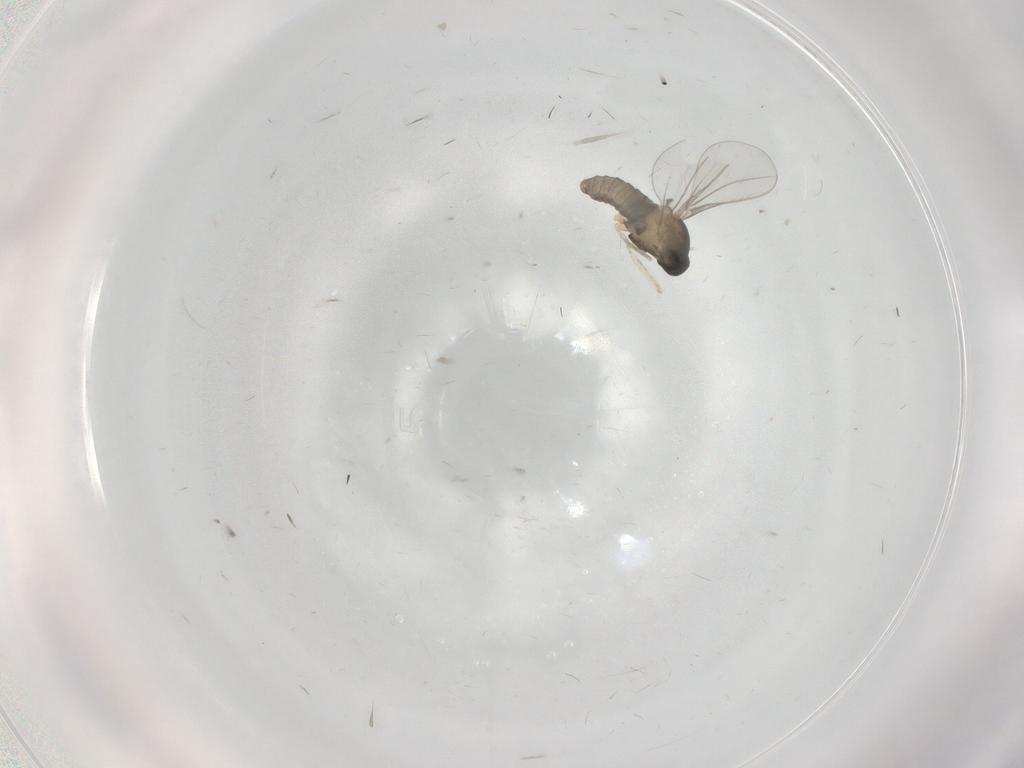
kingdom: Animalia
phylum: Arthropoda
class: Insecta
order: Diptera
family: Cecidomyiidae
